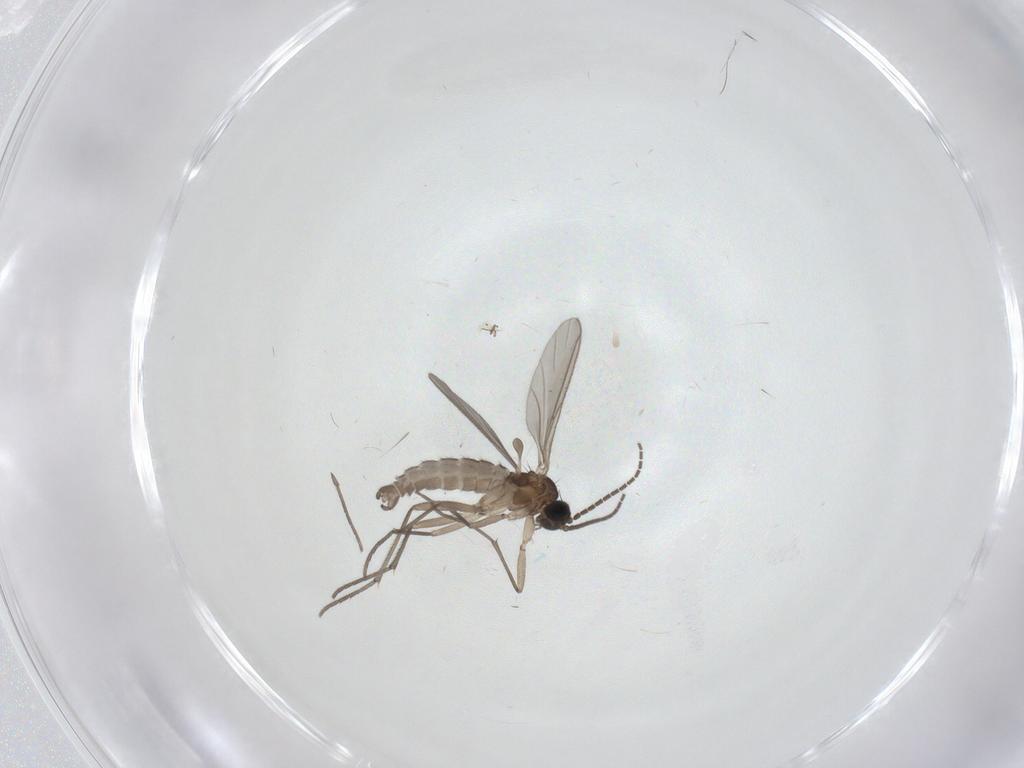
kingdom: Animalia
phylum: Arthropoda
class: Insecta
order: Diptera
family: Sciaridae
